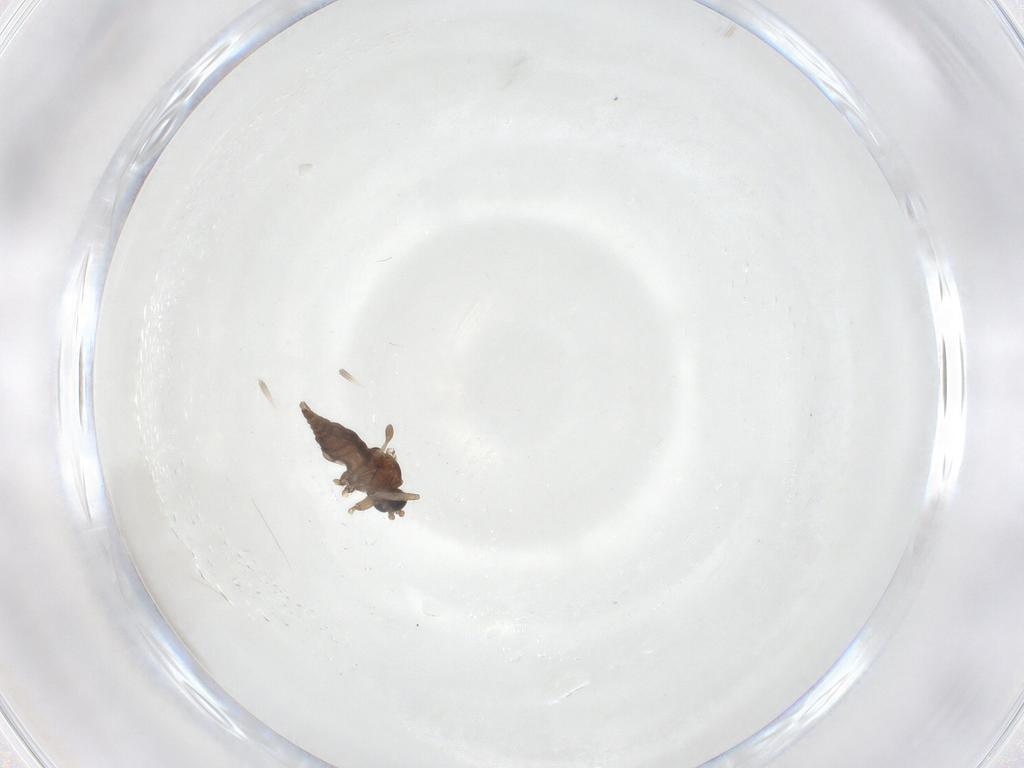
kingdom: Animalia
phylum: Arthropoda
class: Insecta
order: Diptera
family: Sciaridae
